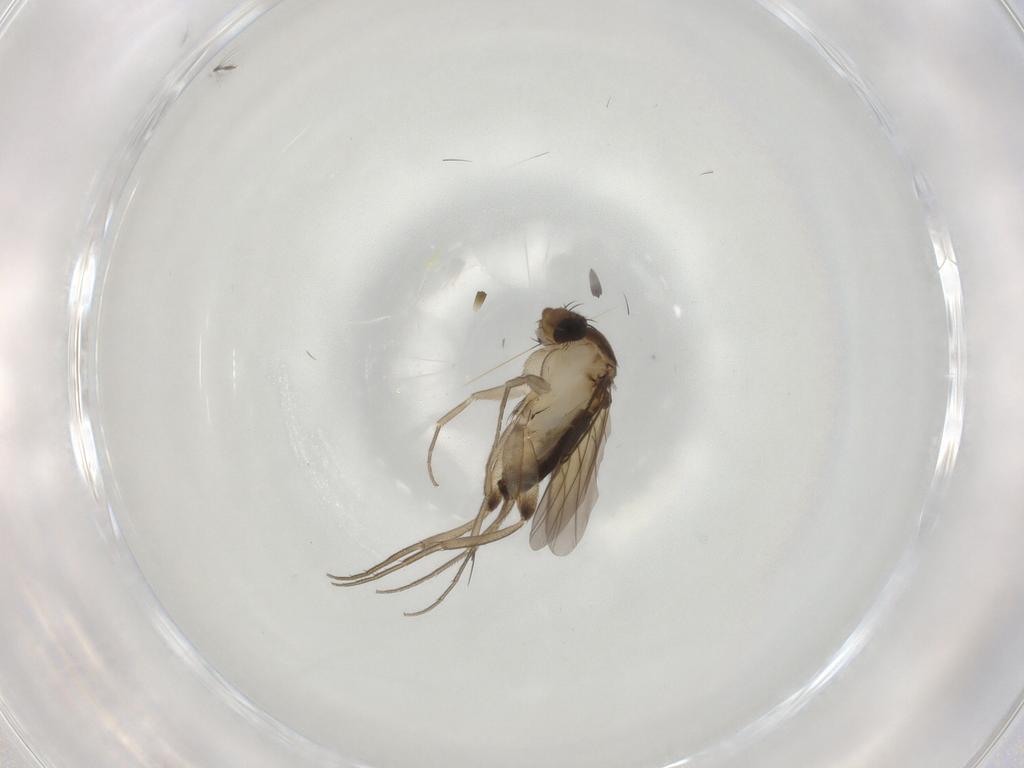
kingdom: Animalia
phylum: Arthropoda
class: Insecta
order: Diptera
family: Phoridae
